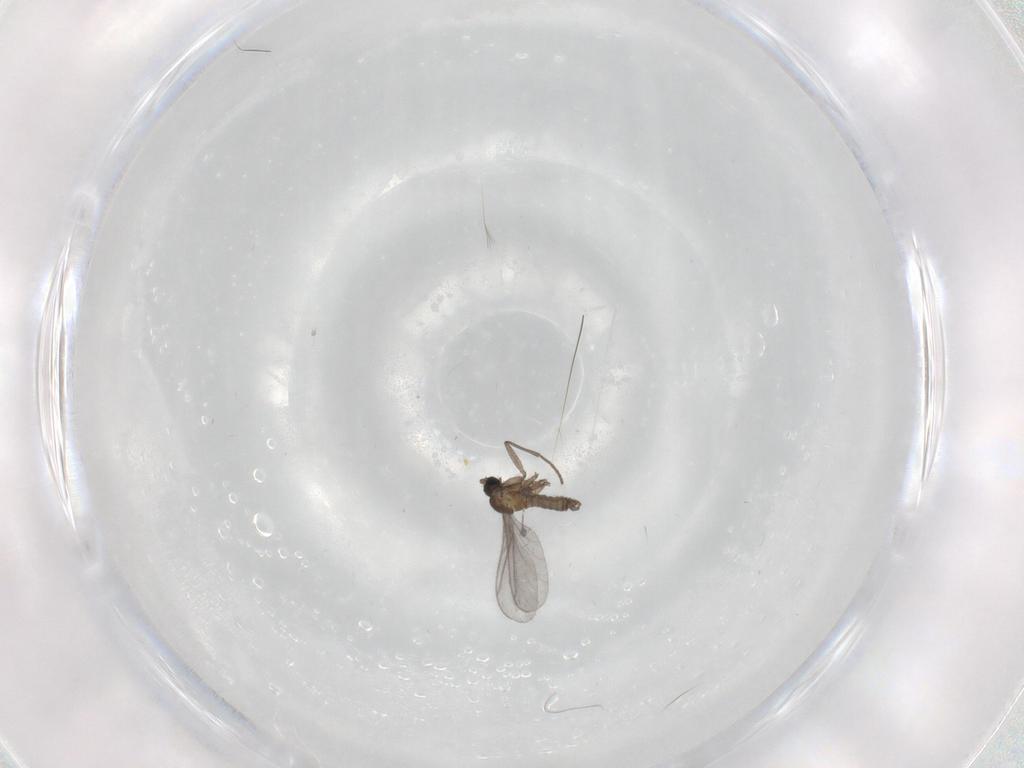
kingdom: Animalia
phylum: Arthropoda
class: Insecta
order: Diptera
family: Sciaridae
